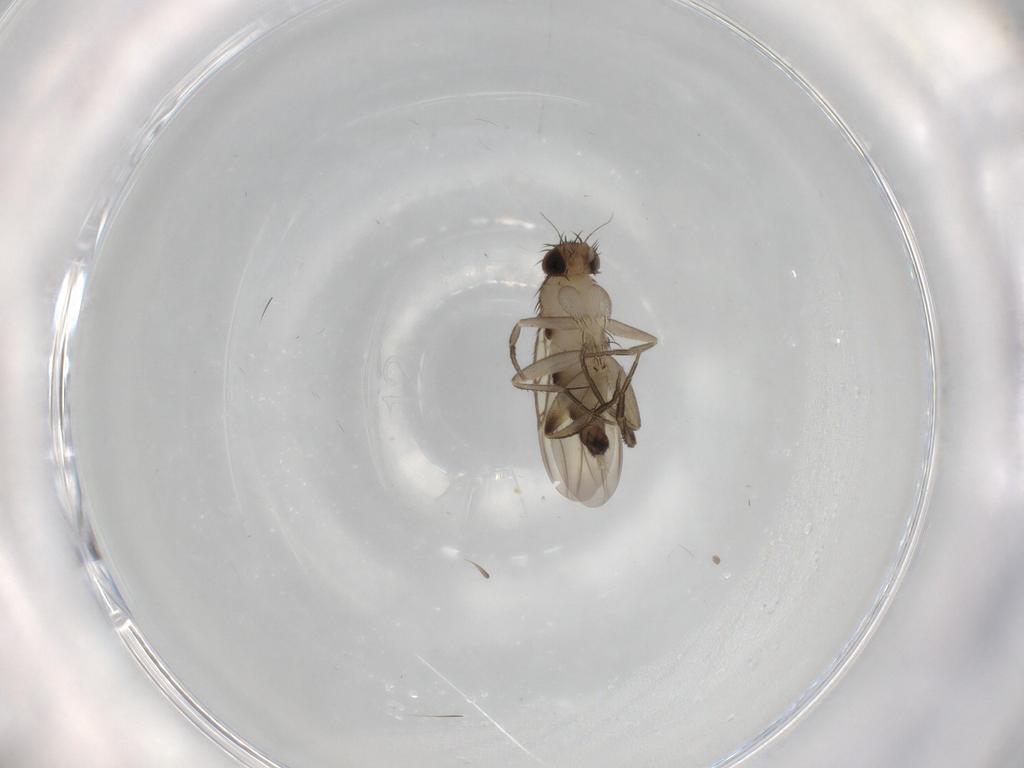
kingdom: Animalia
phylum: Arthropoda
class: Insecta
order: Diptera
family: Phoridae
